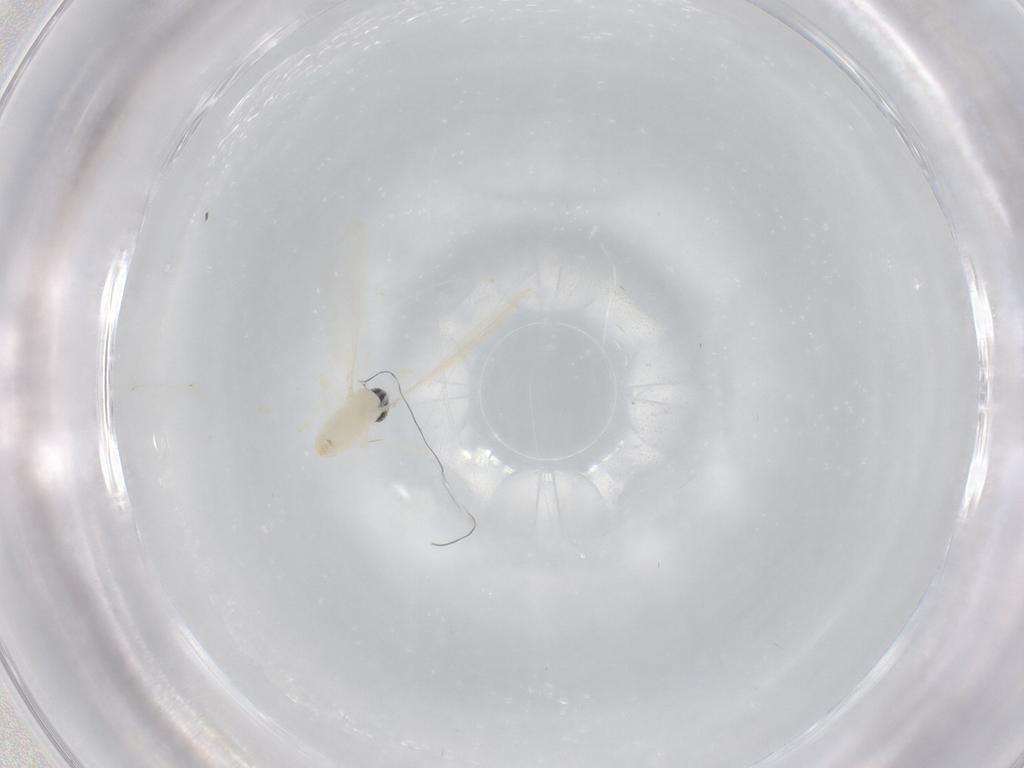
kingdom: Animalia
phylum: Arthropoda
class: Insecta
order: Diptera
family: Cecidomyiidae
